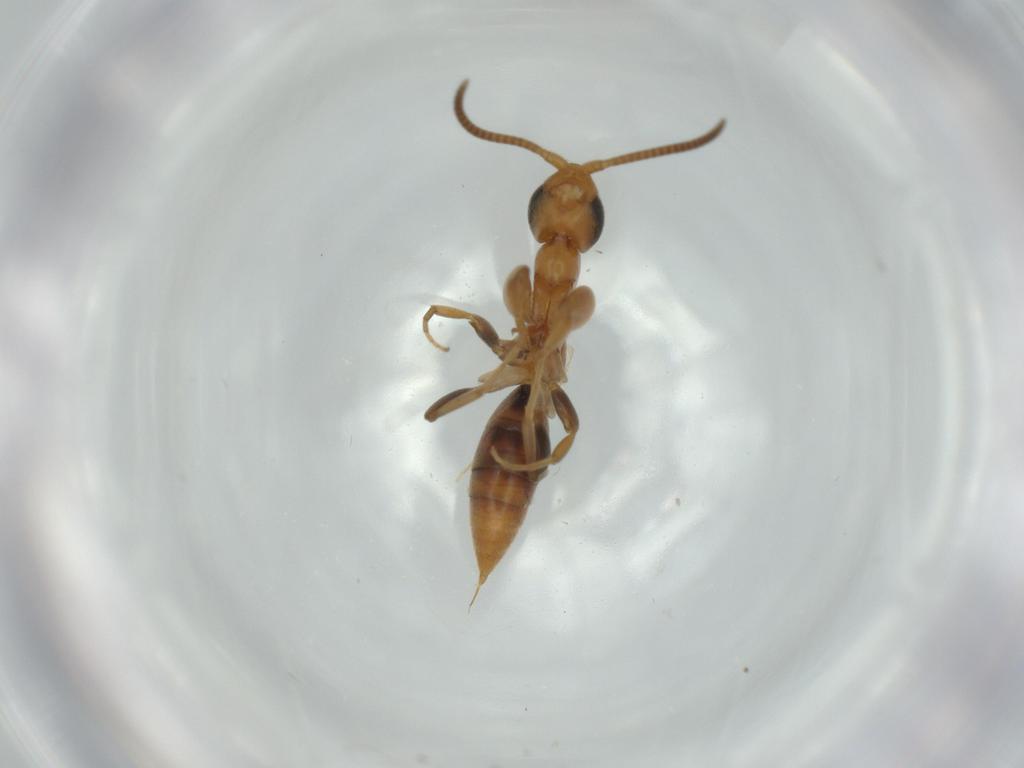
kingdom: Animalia
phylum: Arthropoda
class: Insecta
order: Hymenoptera
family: Sclerogibbidae
